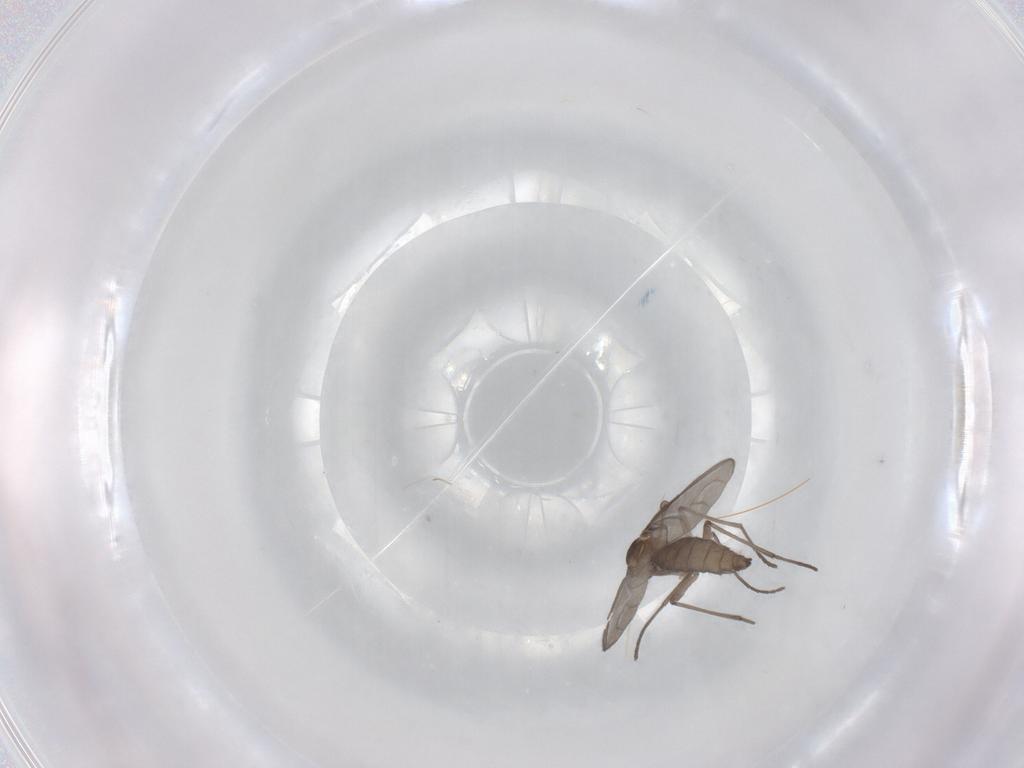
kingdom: Animalia
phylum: Arthropoda
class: Insecta
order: Diptera
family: Sciaridae
